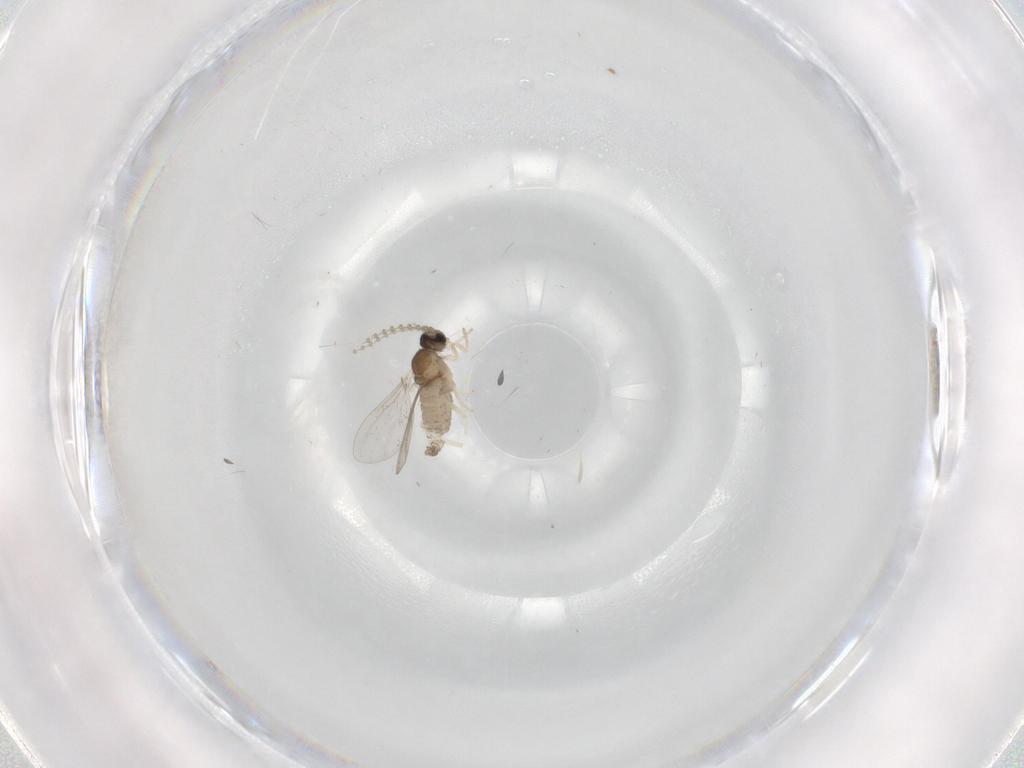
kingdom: Animalia
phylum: Arthropoda
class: Insecta
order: Diptera
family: Cecidomyiidae
